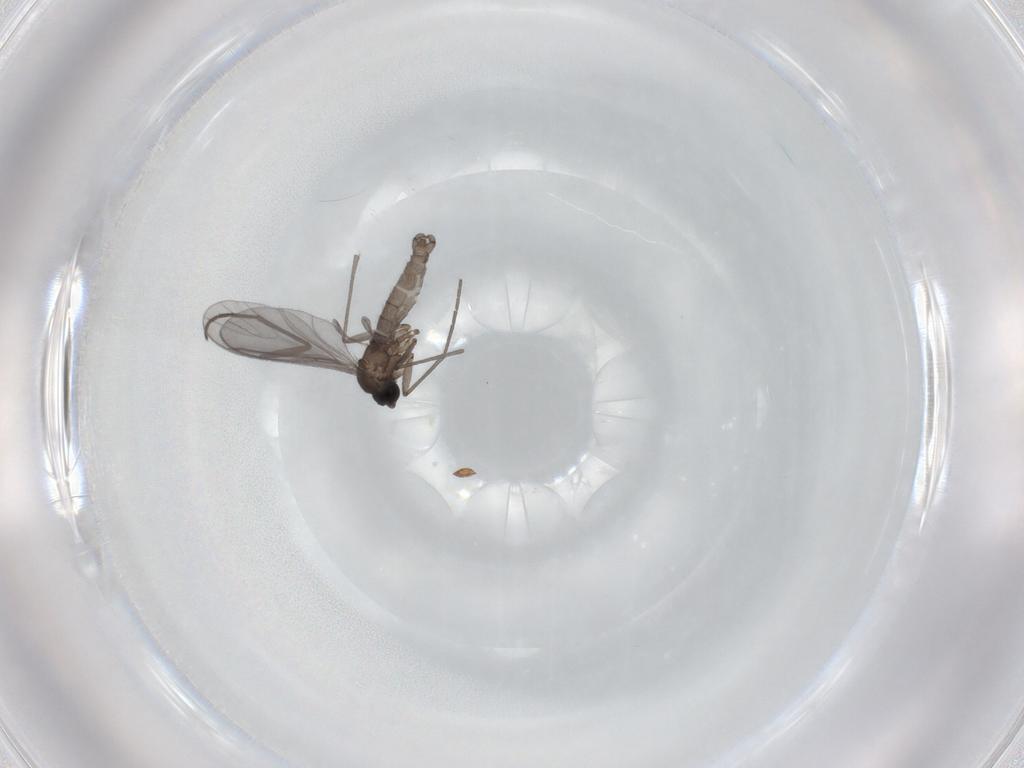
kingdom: Animalia
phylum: Arthropoda
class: Insecta
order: Diptera
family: Sciaridae
